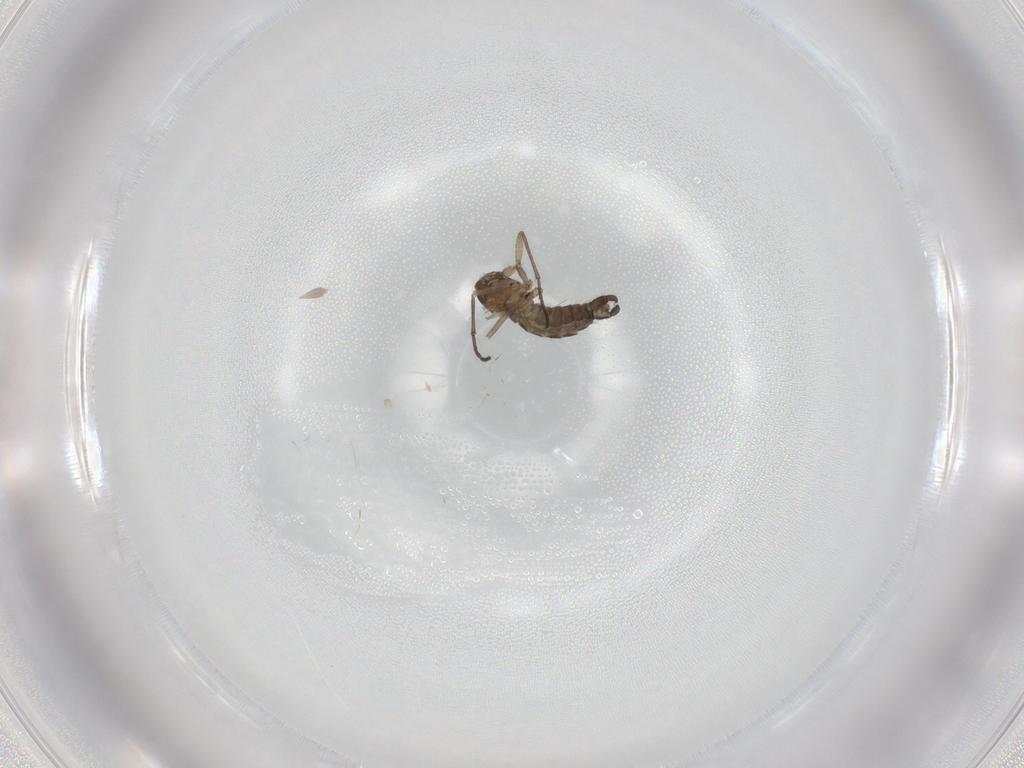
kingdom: Animalia
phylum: Arthropoda
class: Insecta
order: Diptera
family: Sciaridae
